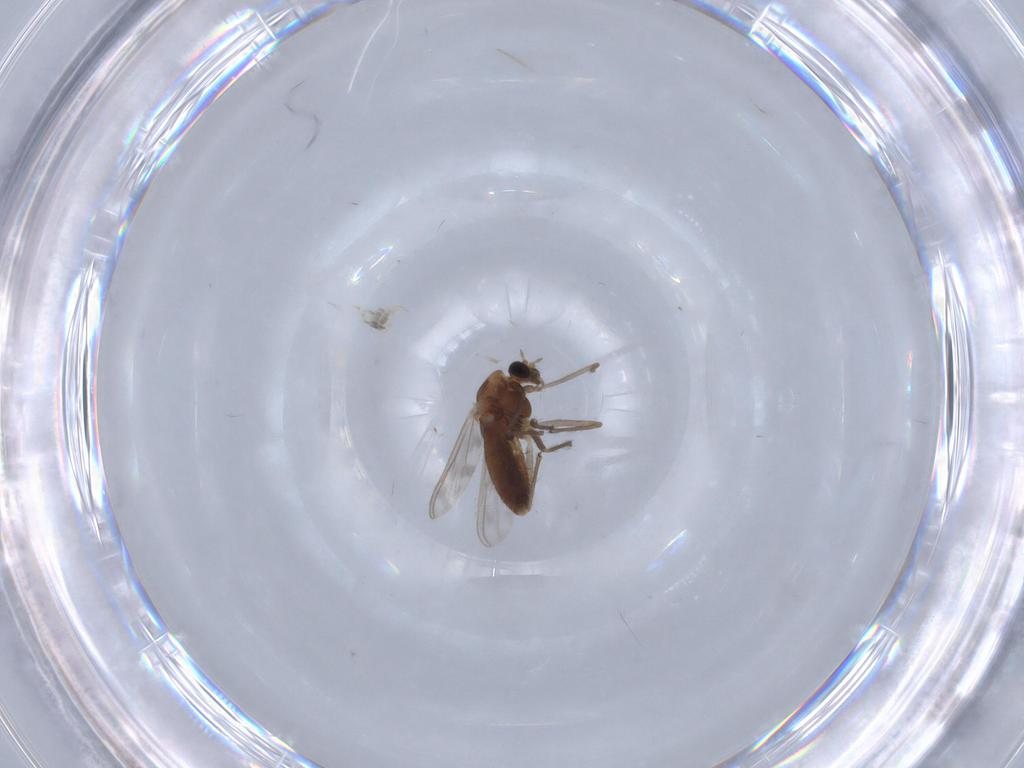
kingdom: Animalia
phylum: Arthropoda
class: Insecta
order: Diptera
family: Chironomidae
